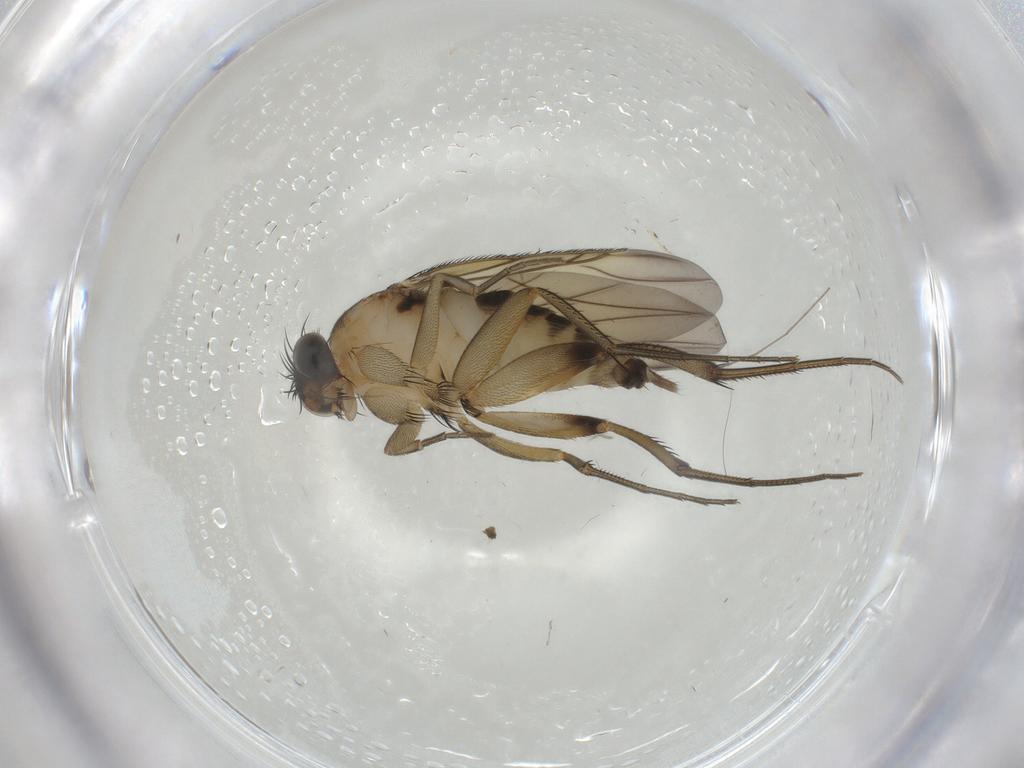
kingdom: Animalia
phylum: Arthropoda
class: Insecta
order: Diptera
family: Phoridae
